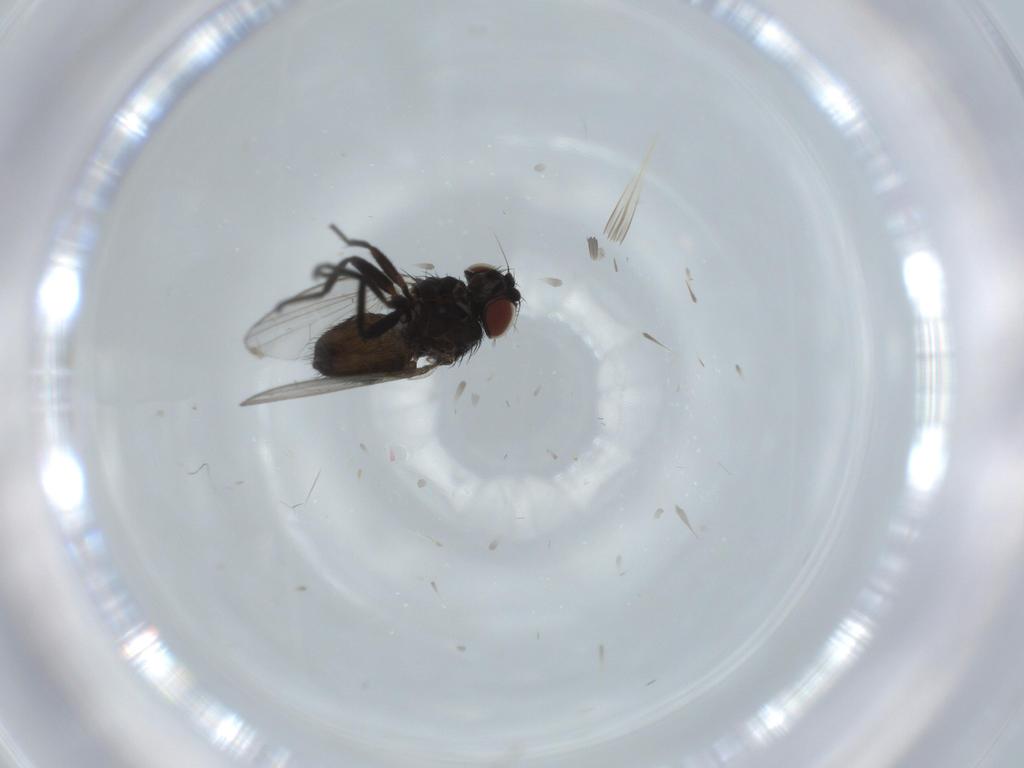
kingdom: Animalia
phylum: Arthropoda
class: Insecta
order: Diptera
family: Milichiidae
